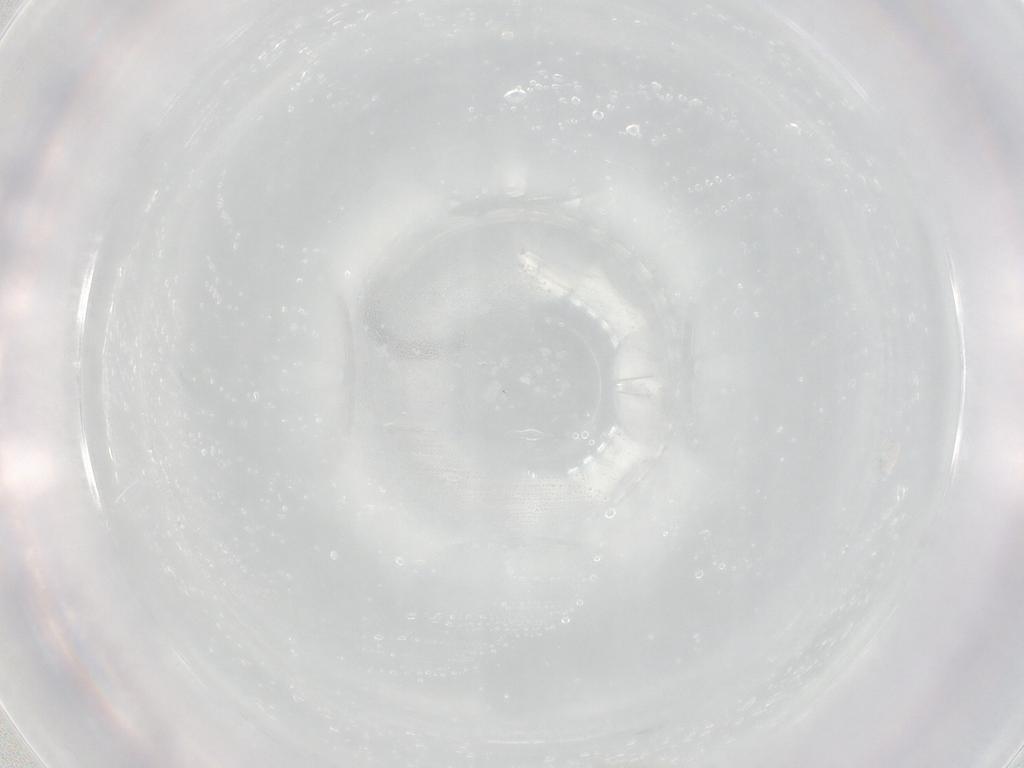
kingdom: Animalia
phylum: Arthropoda
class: Insecta
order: Diptera
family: Cecidomyiidae
